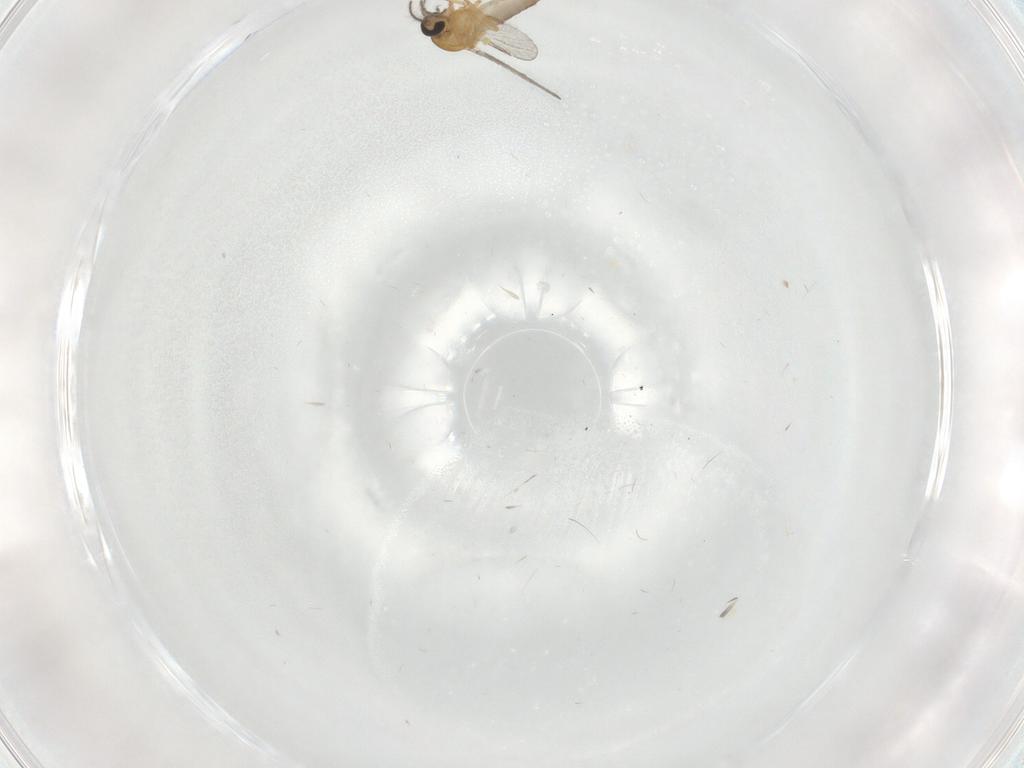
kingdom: Animalia
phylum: Arthropoda
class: Insecta
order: Diptera
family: Ceratopogonidae
